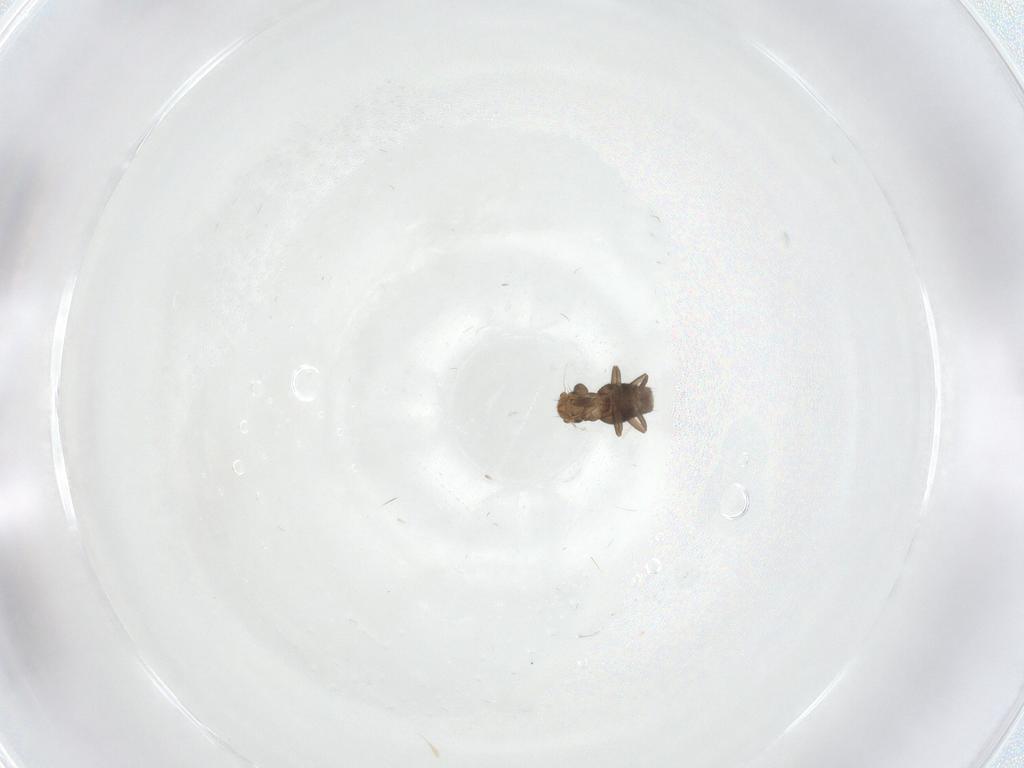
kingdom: Animalia
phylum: Arthropoda
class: Insecta
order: Diptera
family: Phoridae
